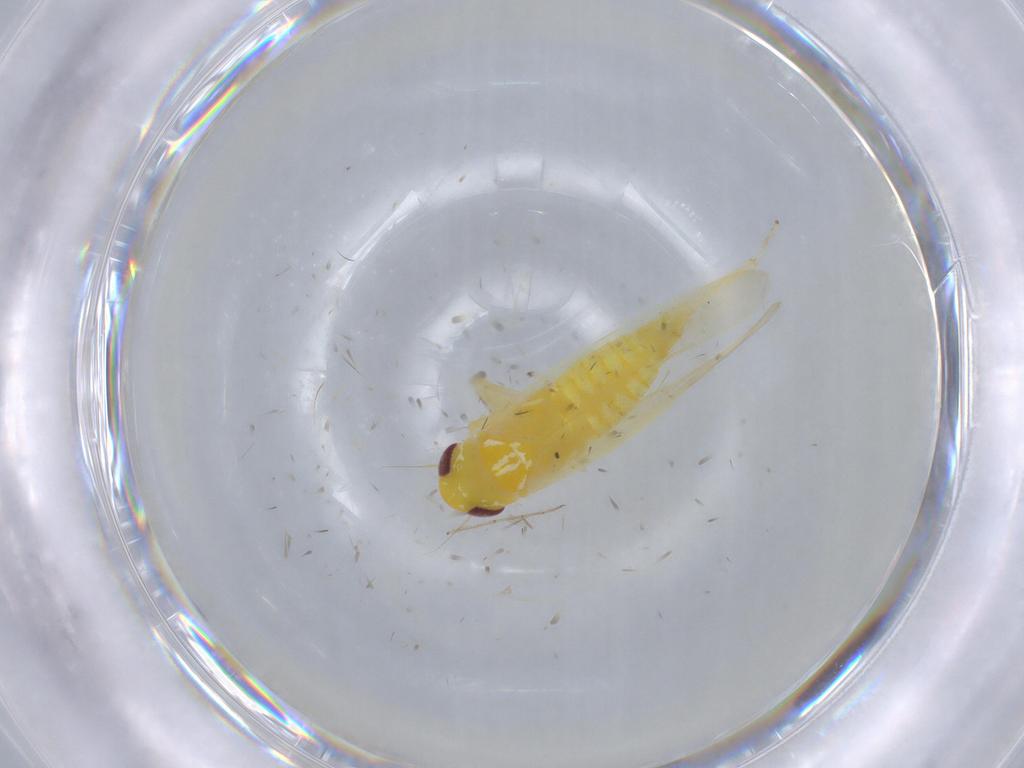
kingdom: Animalia
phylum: Arthropoda
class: Insecta
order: Hemiptera
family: Cicadellidae
